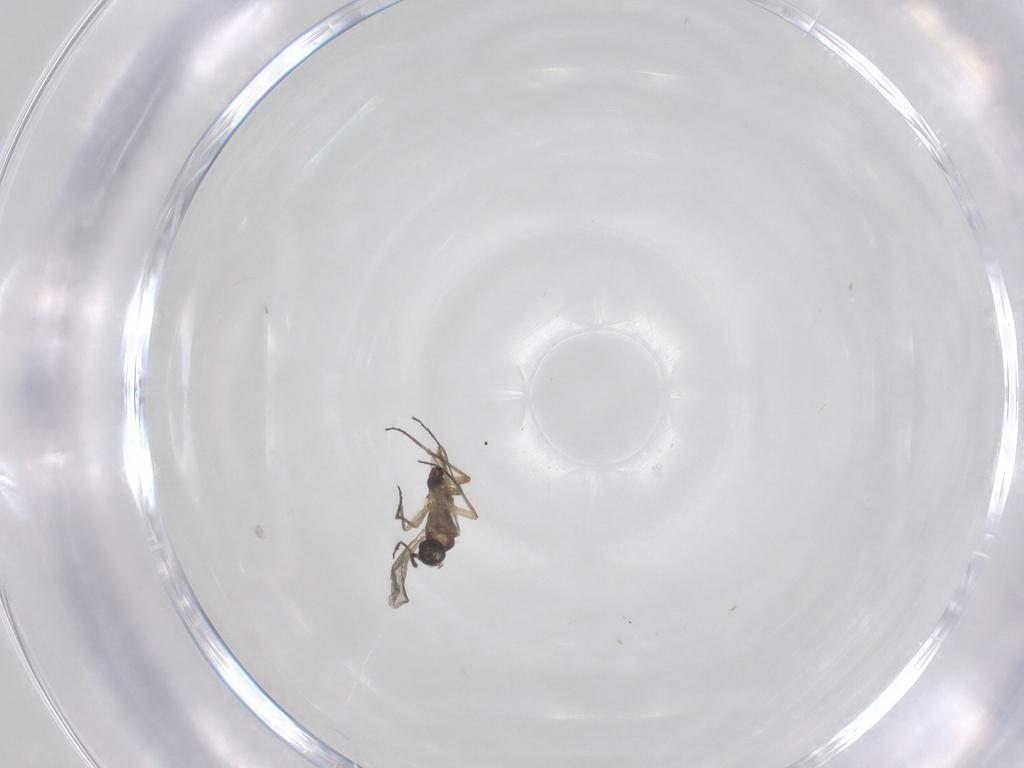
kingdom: Animalia
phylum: Arthropoda
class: Insecta
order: Diptera
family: Sciaridae
